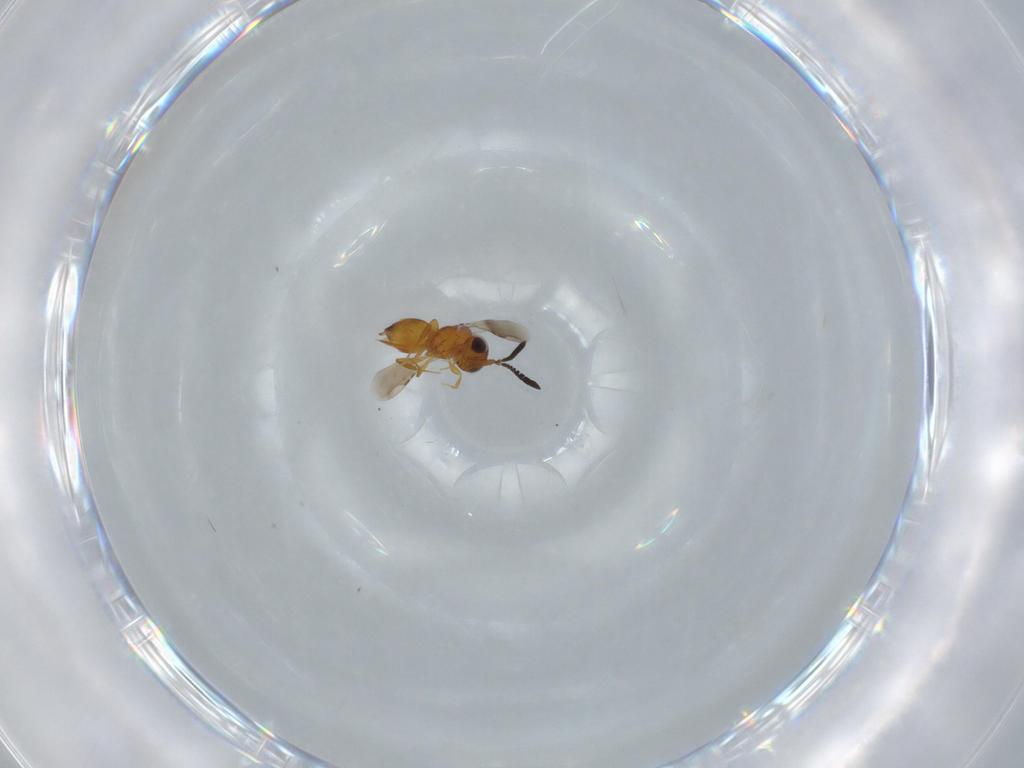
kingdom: Animalia
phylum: Arthropoda
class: Insecta
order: Hymenoptera
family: Ceraphronidae
